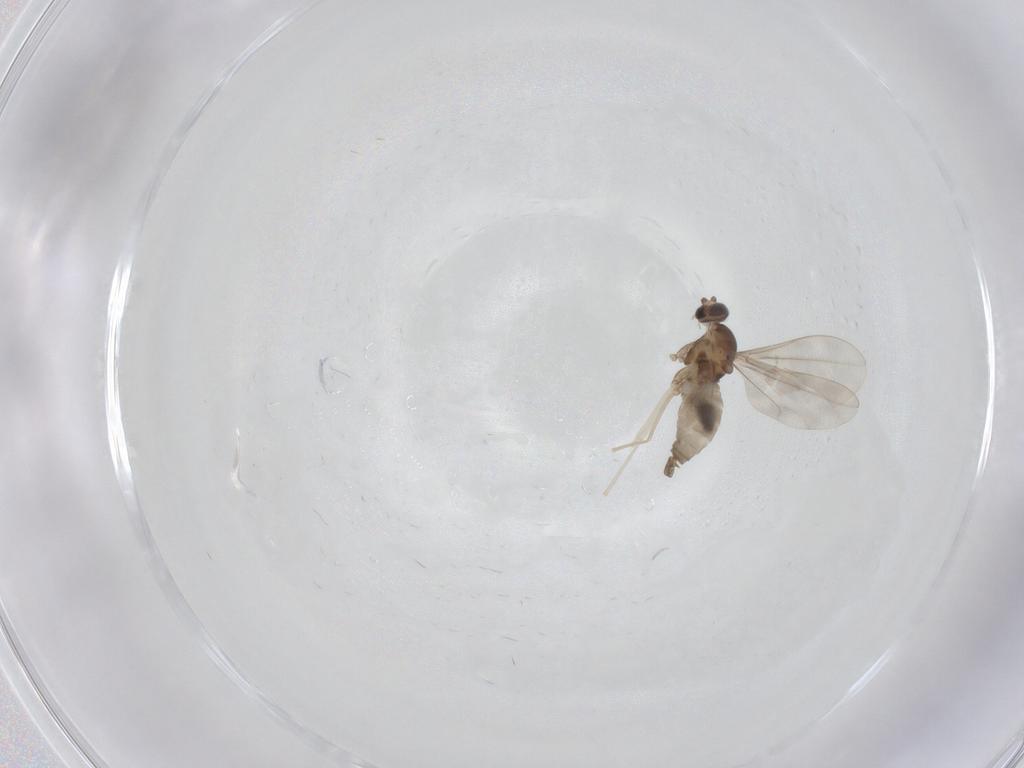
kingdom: Animalia
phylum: Arthropoda
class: Insecta
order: Diptera
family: Cecidomyiidae
